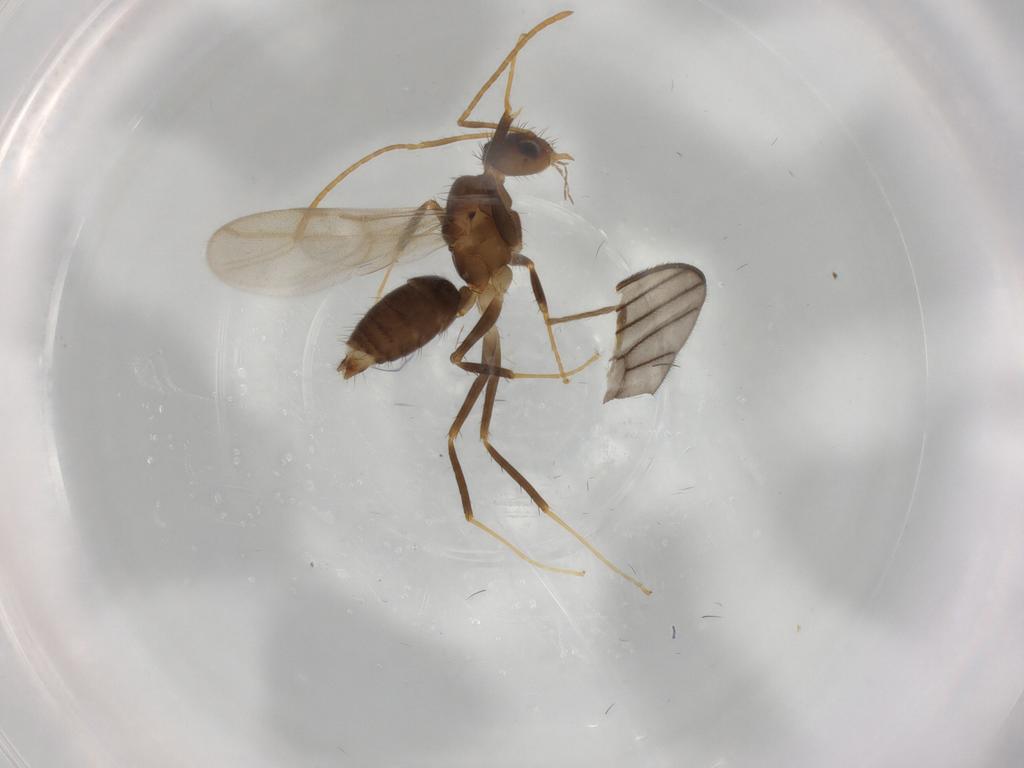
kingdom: Animalia
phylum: Arthropoda
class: Insecta
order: Hymenoptera
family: Formicidae
